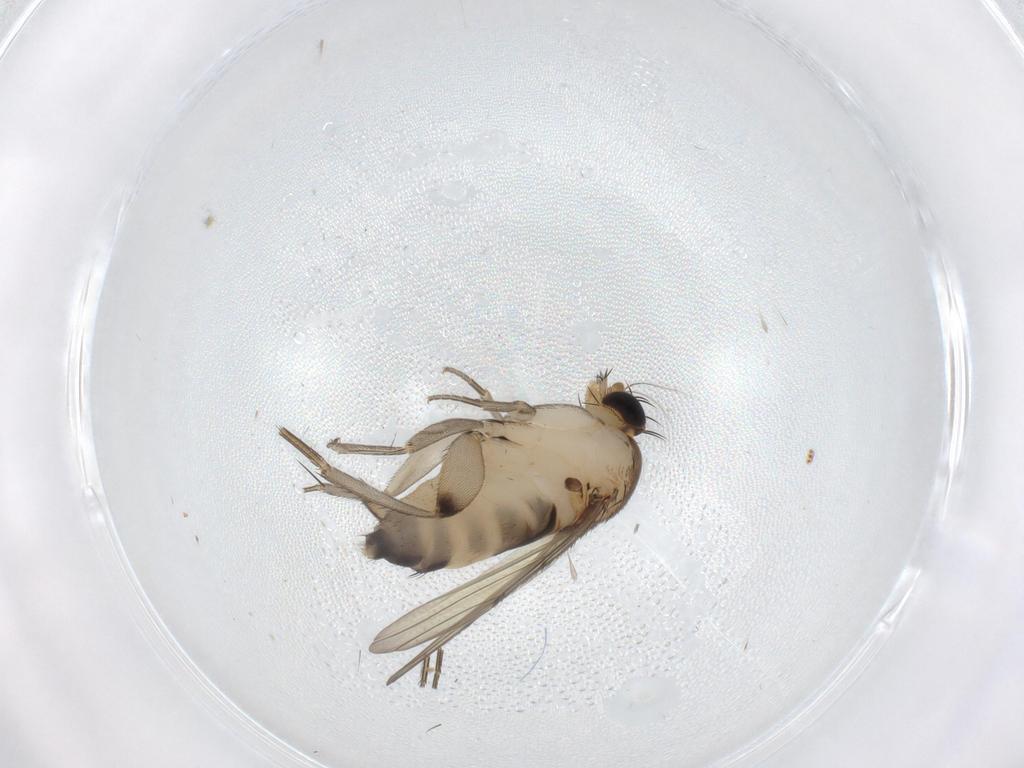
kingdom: Animalia
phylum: Arthropoda
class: Insecta
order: Diptera
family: Phoridae
